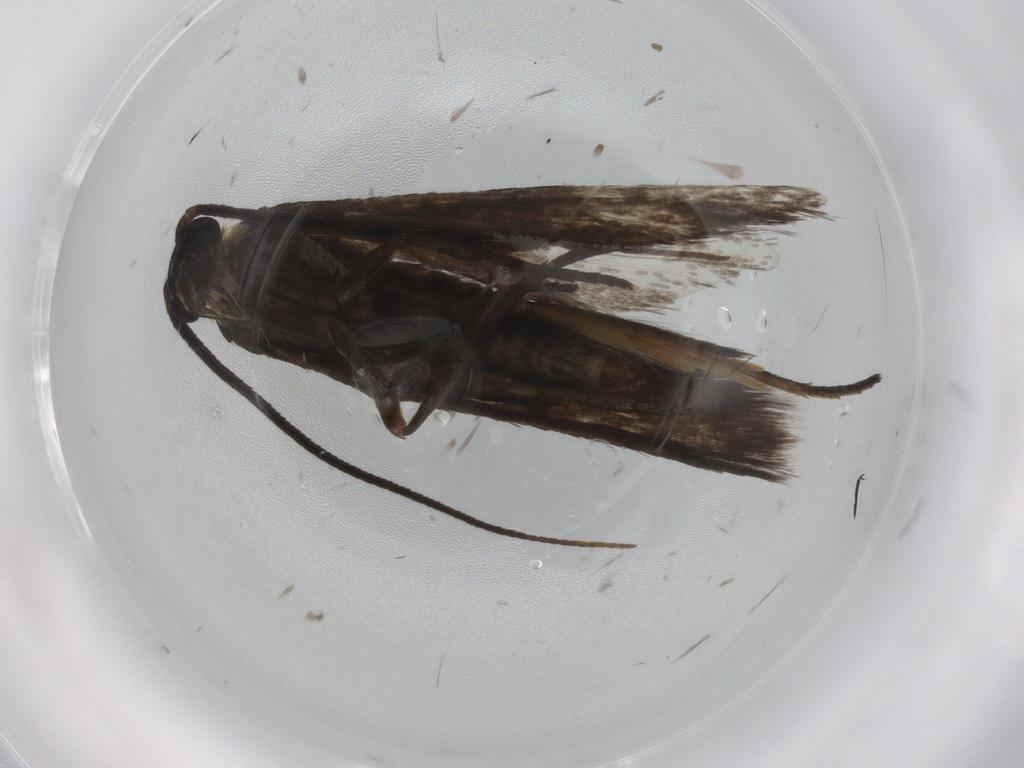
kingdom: Animalia
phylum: Arthropoda
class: Insecta
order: Lepidoptera
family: Adelidae
